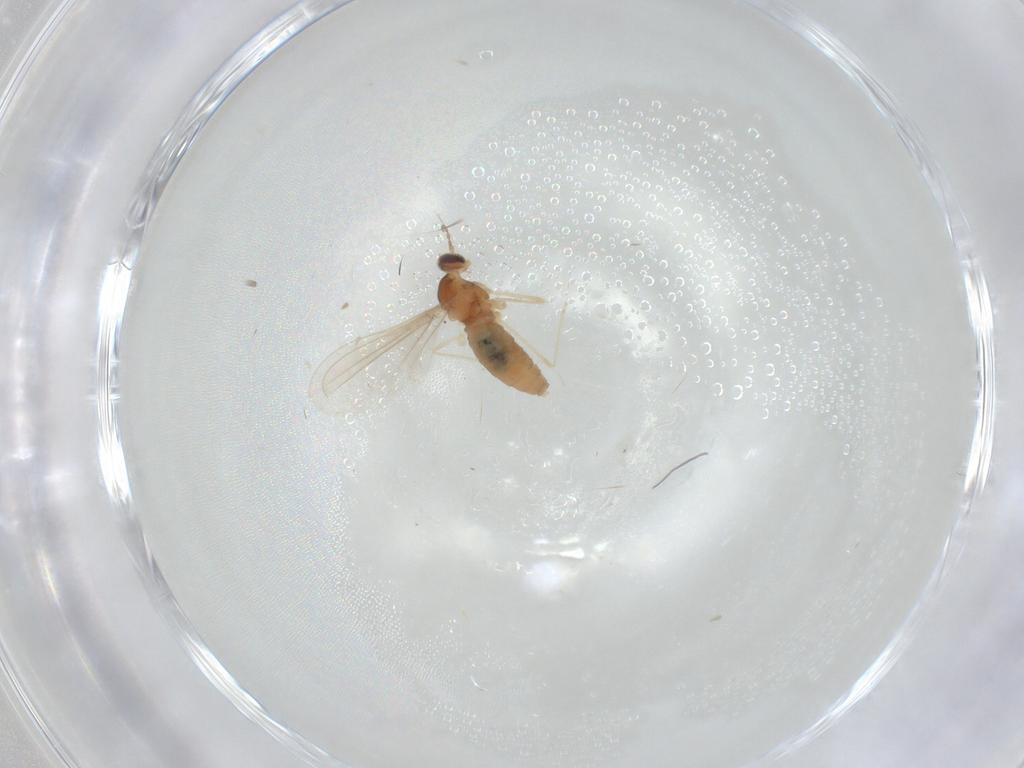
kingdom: Animalia
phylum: Arthropoda
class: Insecta
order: Diptera
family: Cecidomyiidae
